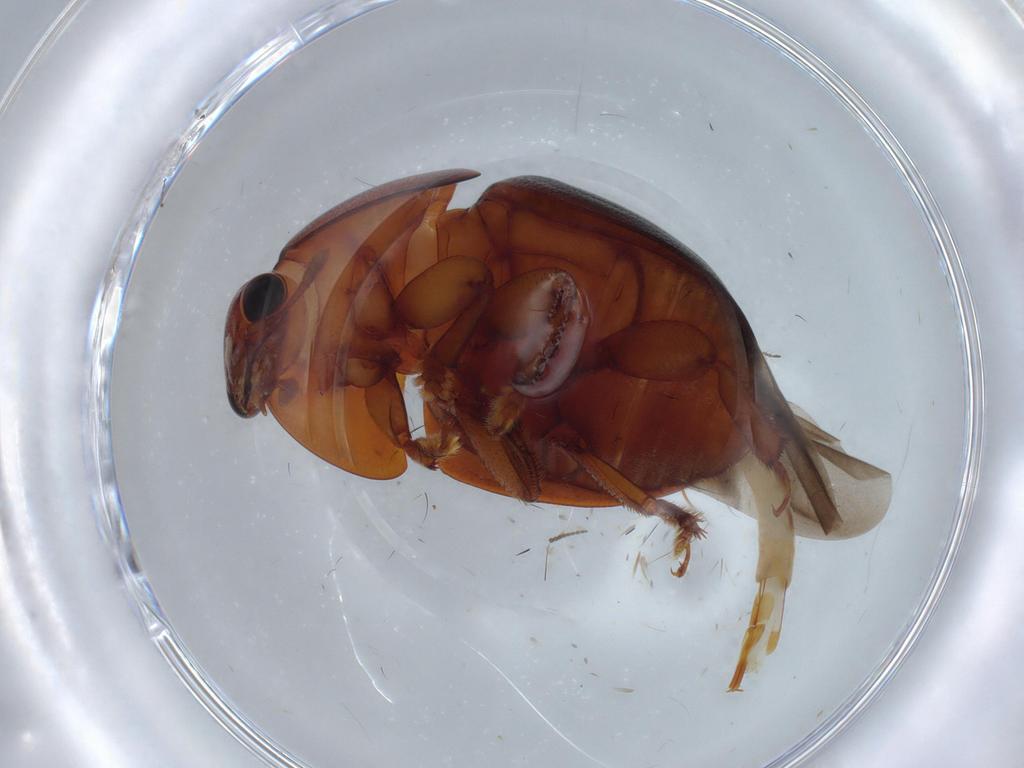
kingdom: Animalia
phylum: Arthropoda
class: Insecta
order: Coleoptera
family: Nitidulidae
